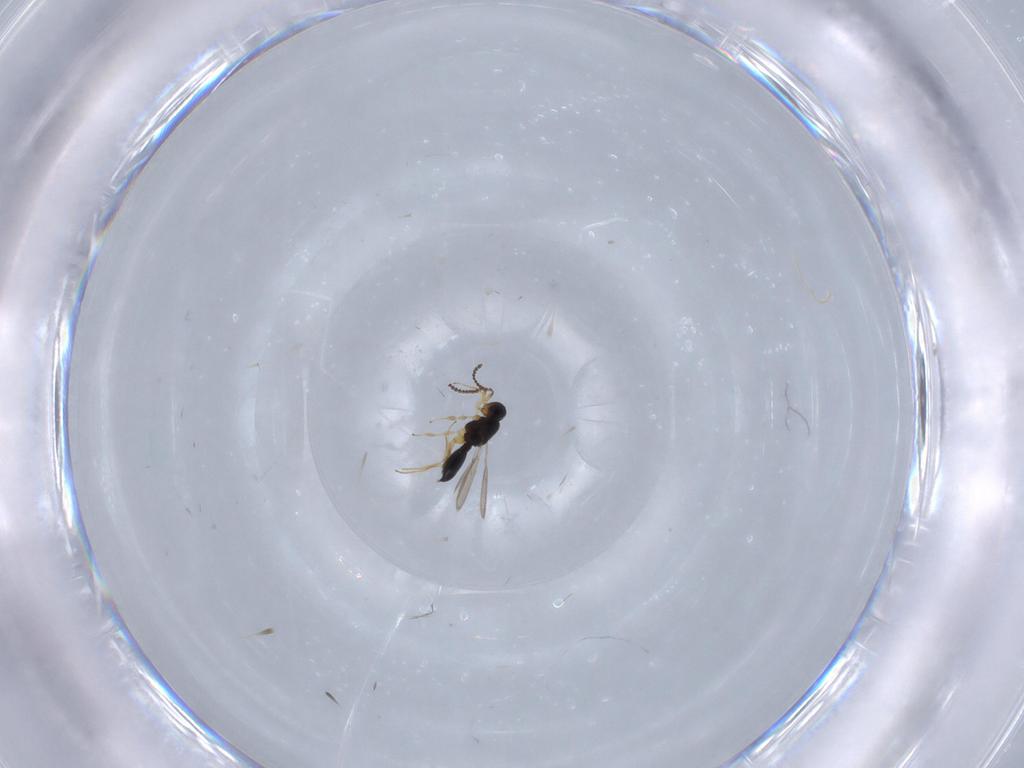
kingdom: Animalia
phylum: Arthropoda
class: Insecta
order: Hymenoptera
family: Scelionidae
